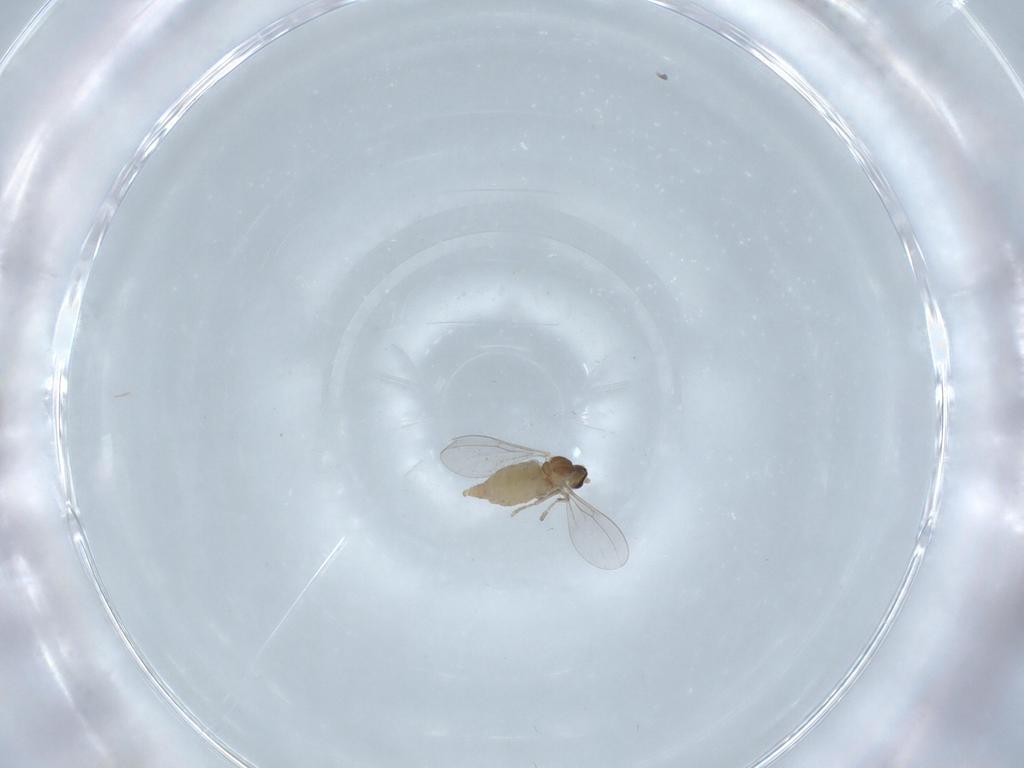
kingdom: Animalia
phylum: Arthropoda
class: Insecta
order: Diptera
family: Cecidomyiidae
